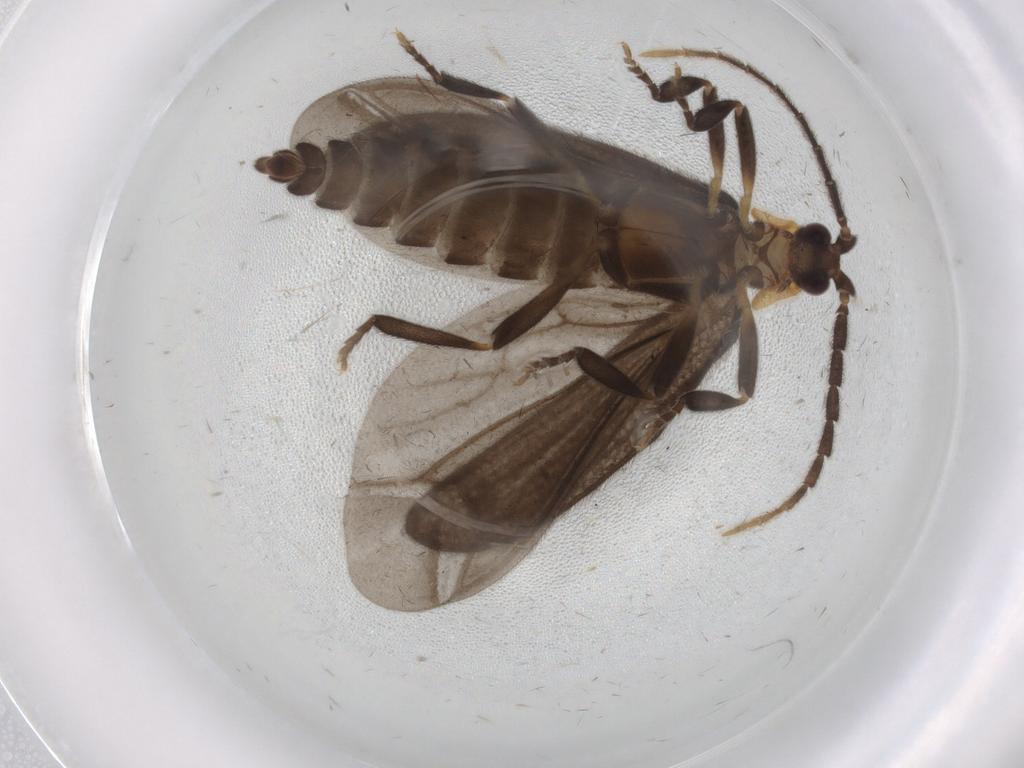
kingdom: Animalia
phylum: Arthropoda
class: Insecta
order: Coleoptera
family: Lycidae
